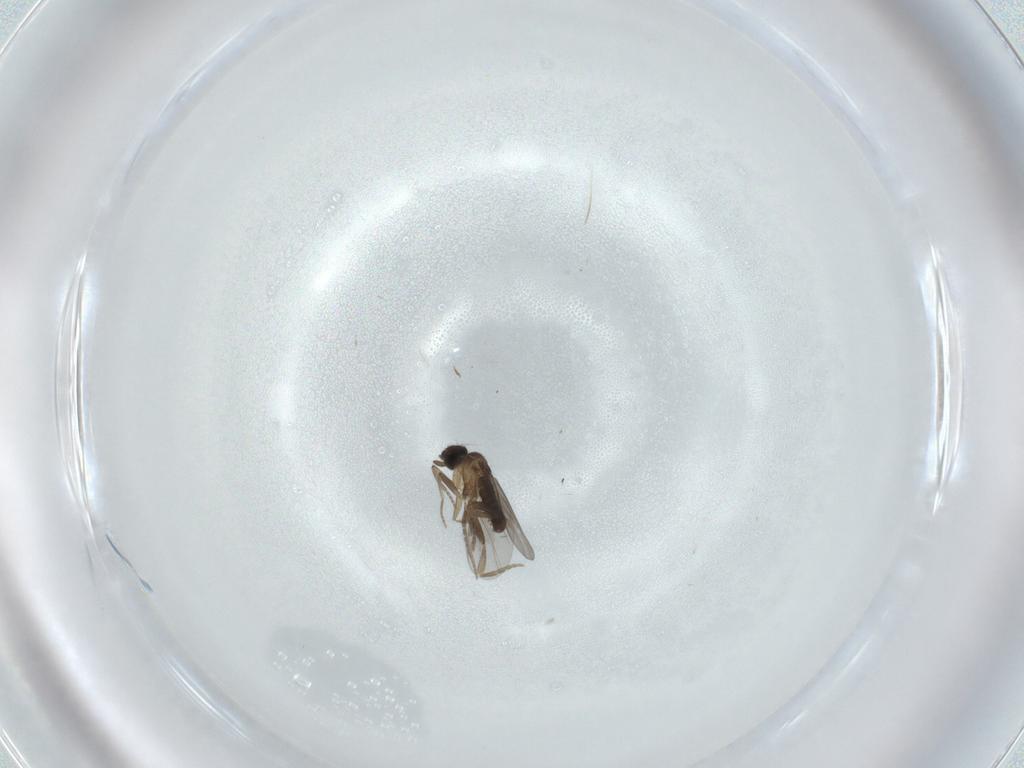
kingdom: Animalia
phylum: Arthropoda
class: Insecta
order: Diptera
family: Chironomidae
